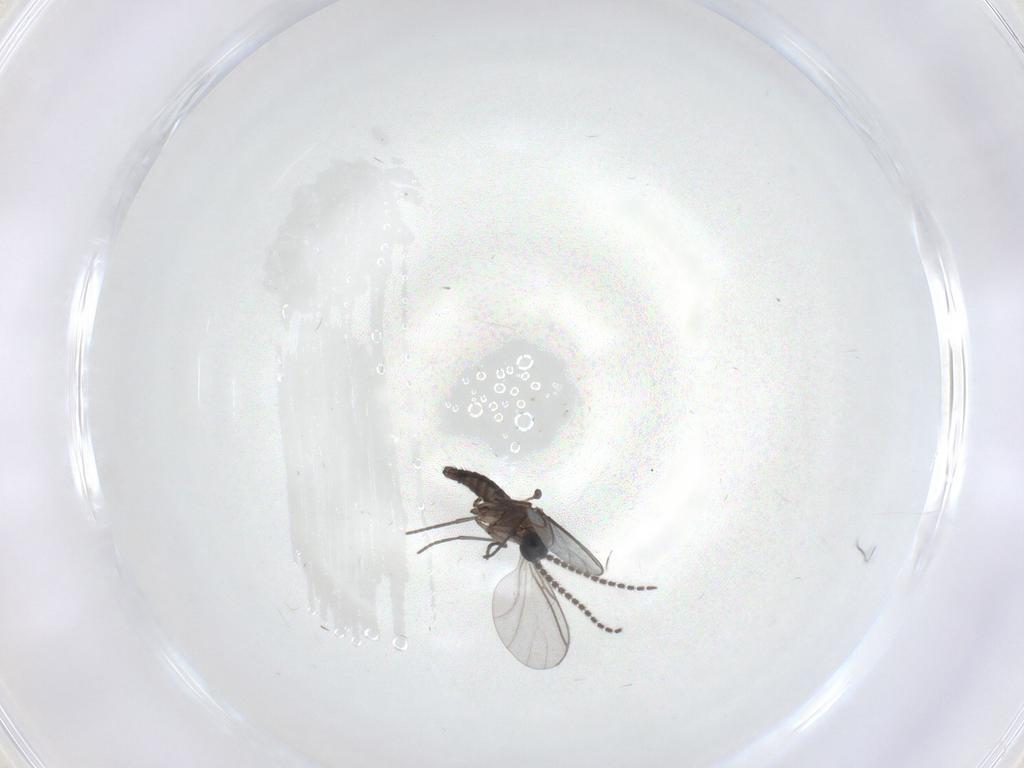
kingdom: Animalia
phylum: Arthropoda
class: Insecta
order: Diptera
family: Sciaridae
